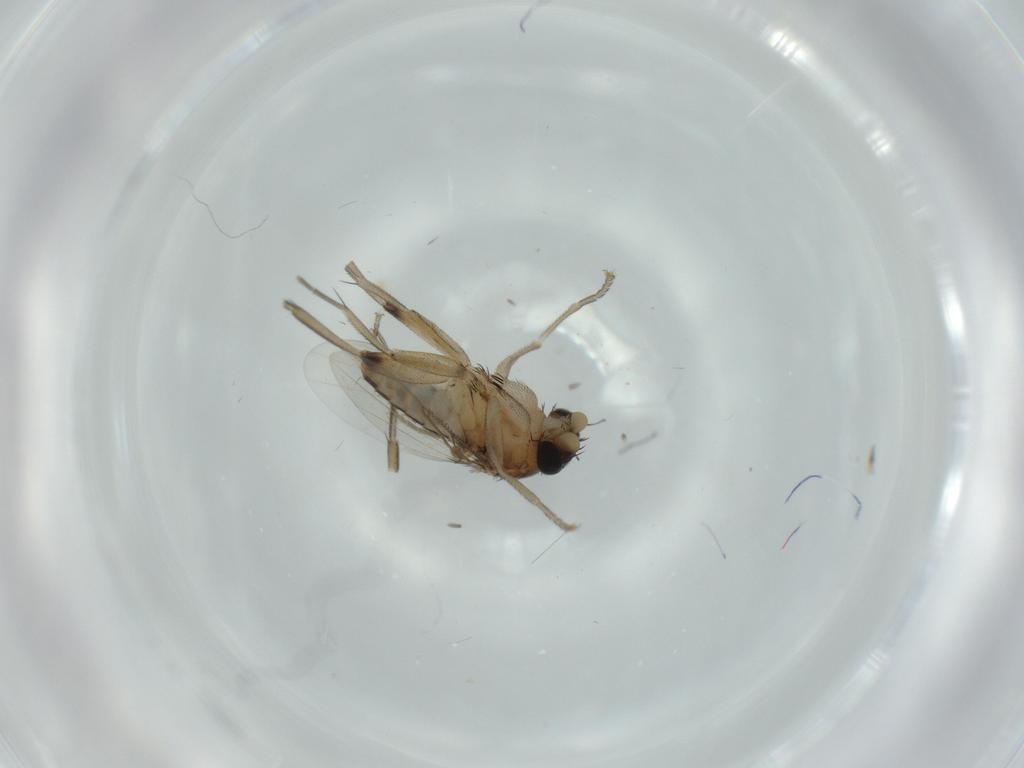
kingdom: Animalia
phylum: Arthropoda
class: Insecta
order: Diptera
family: Phoridae
